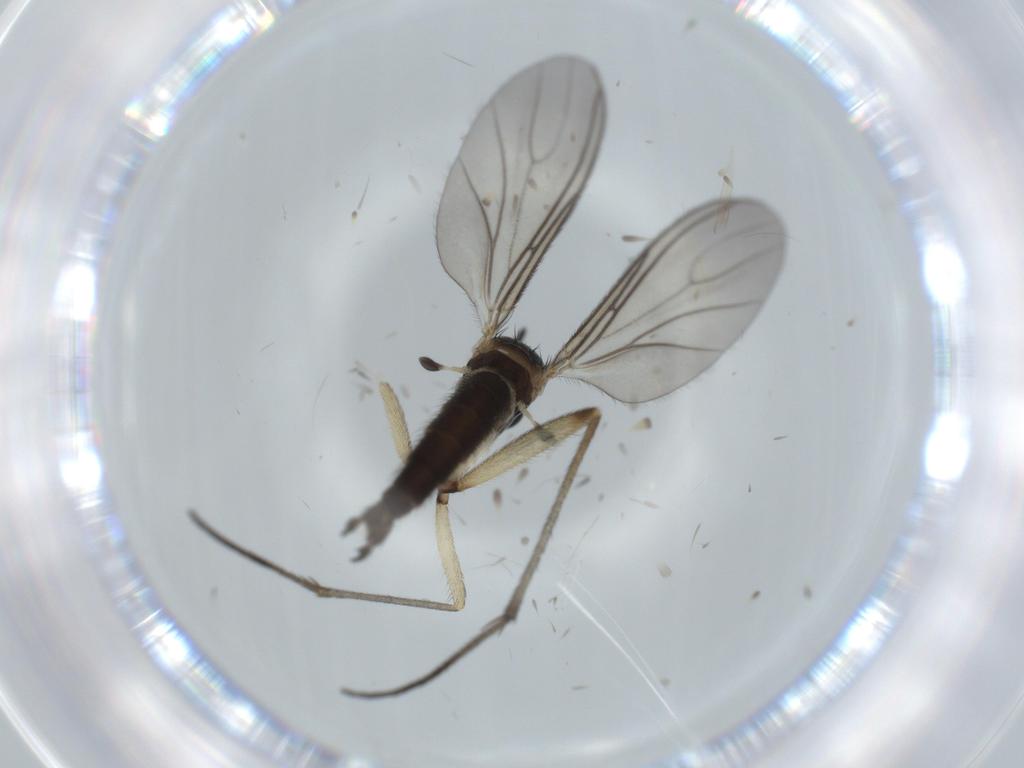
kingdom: Animalia
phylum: Arthropoda
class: Insecta
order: Diptera
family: Sciaridae
